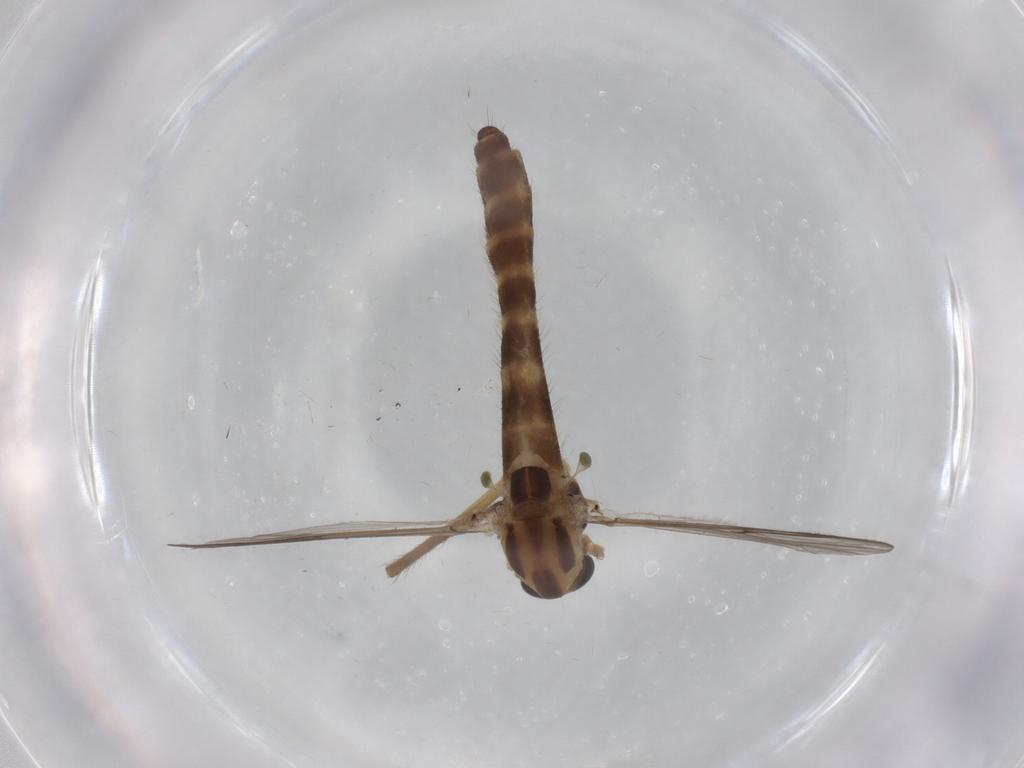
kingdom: Animalia
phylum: Arthropoda
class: Insecta
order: Diptera
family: Chironomidae
